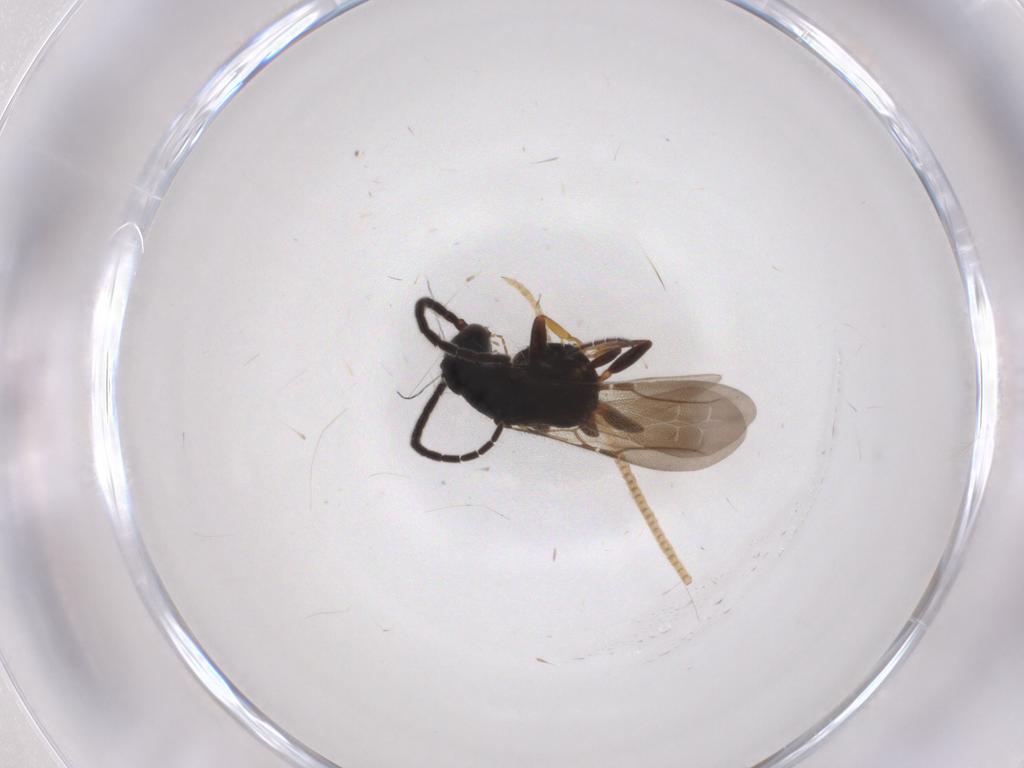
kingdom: Animalia
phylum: Arthropoda
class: Insecta
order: Hymenoptera
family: Bethylidae
